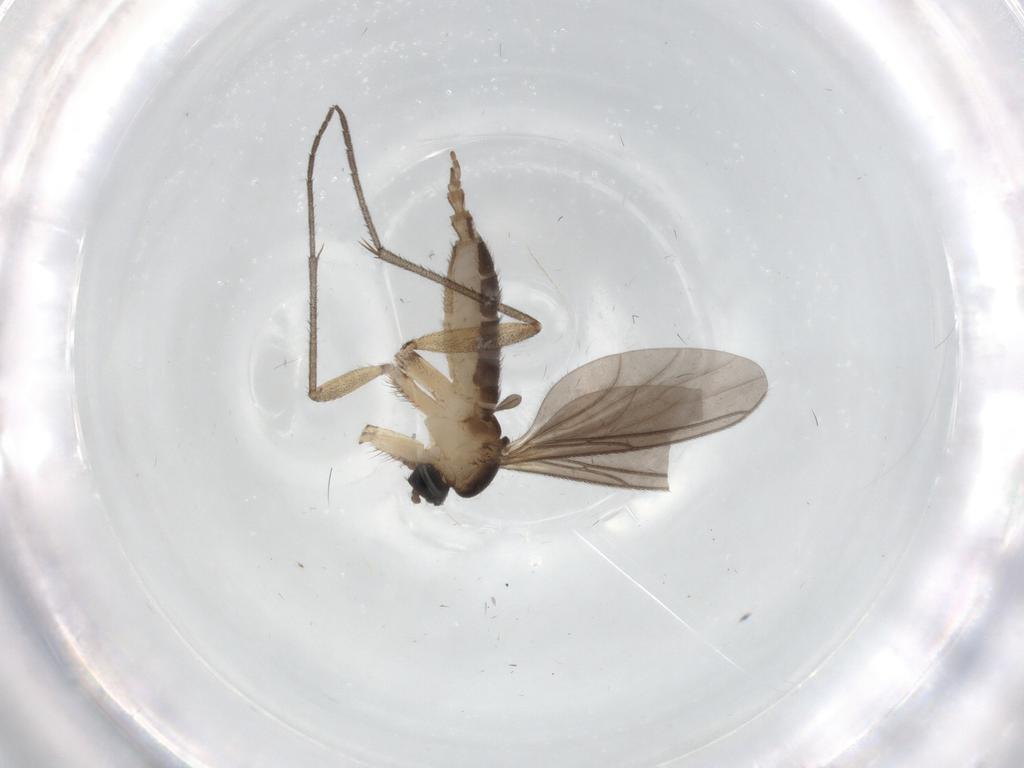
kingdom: Animalia
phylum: Arthropoda
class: Insecta
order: Diptera
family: Sciaridae
